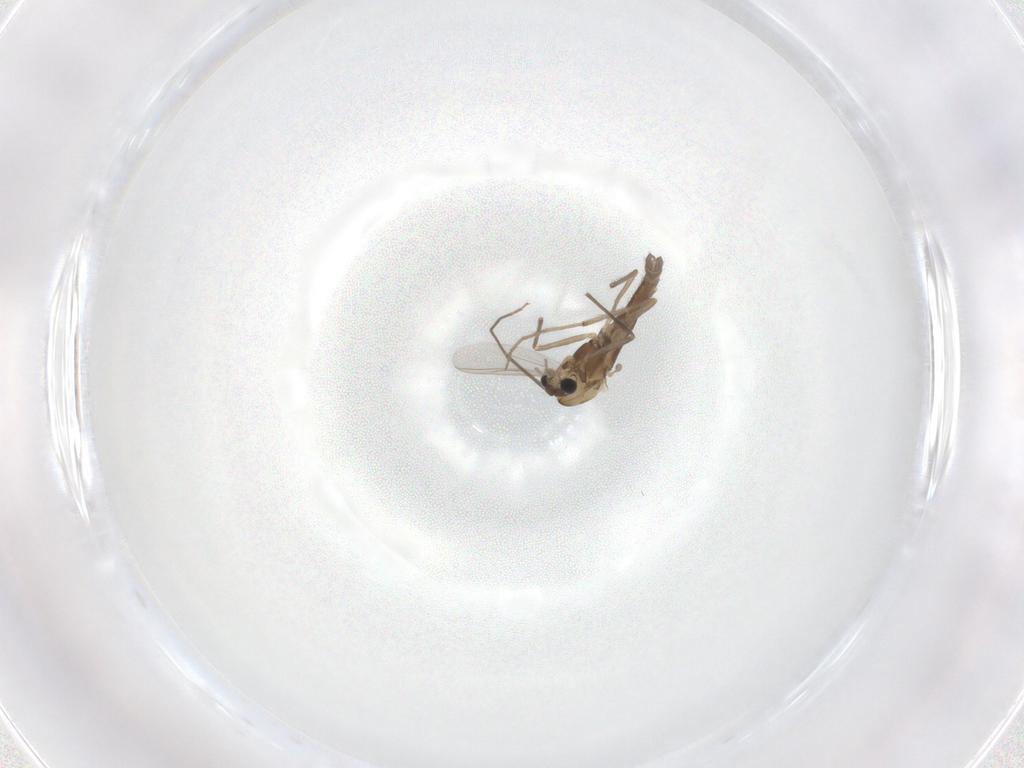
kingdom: Animalia
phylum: Arthropoda
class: Insecta
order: Diptera
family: Chironomidae
